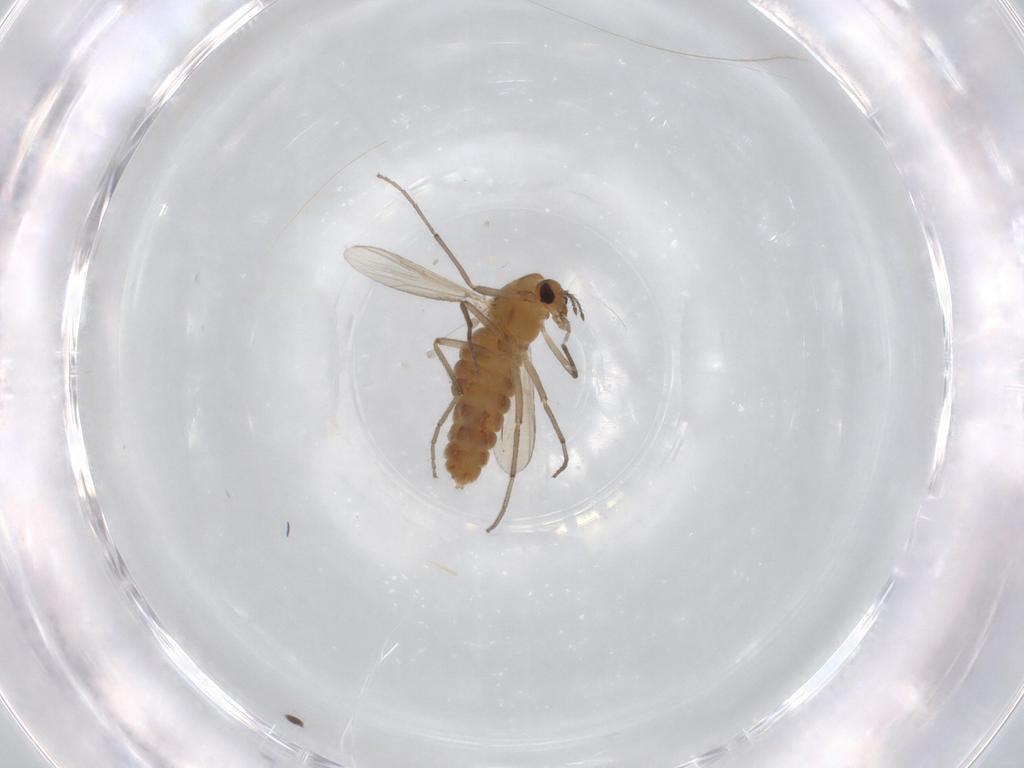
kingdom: Animalia
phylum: Arthropoda
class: Insecta
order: Diptera
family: Chironomidae
